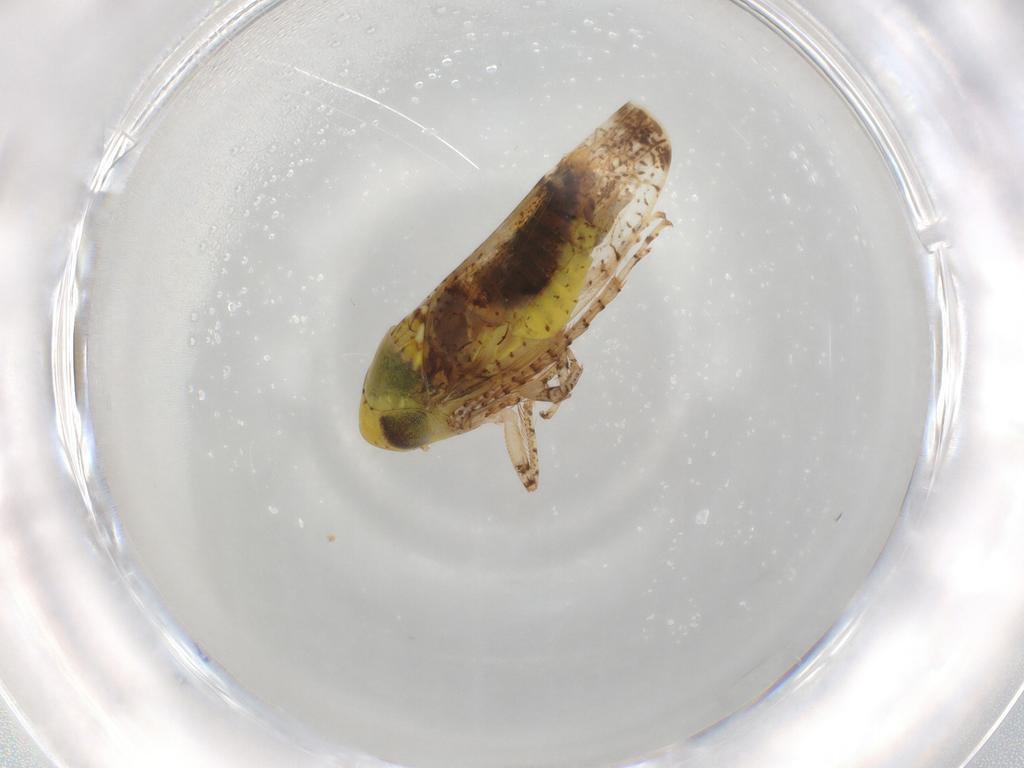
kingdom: Animalia
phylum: Arthropoda
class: Insecta
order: Hemiptera
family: Cicadellidae
